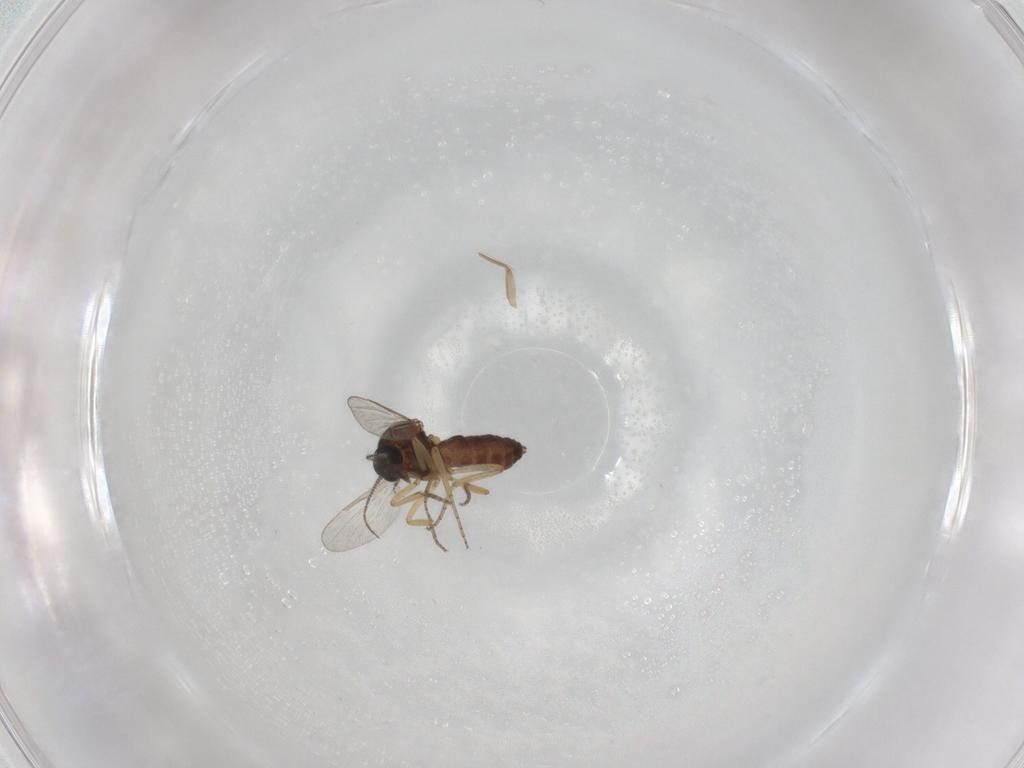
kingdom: Animalia
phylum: Arthropoda
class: Insecta
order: Diptera
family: Ceratopogonidae
